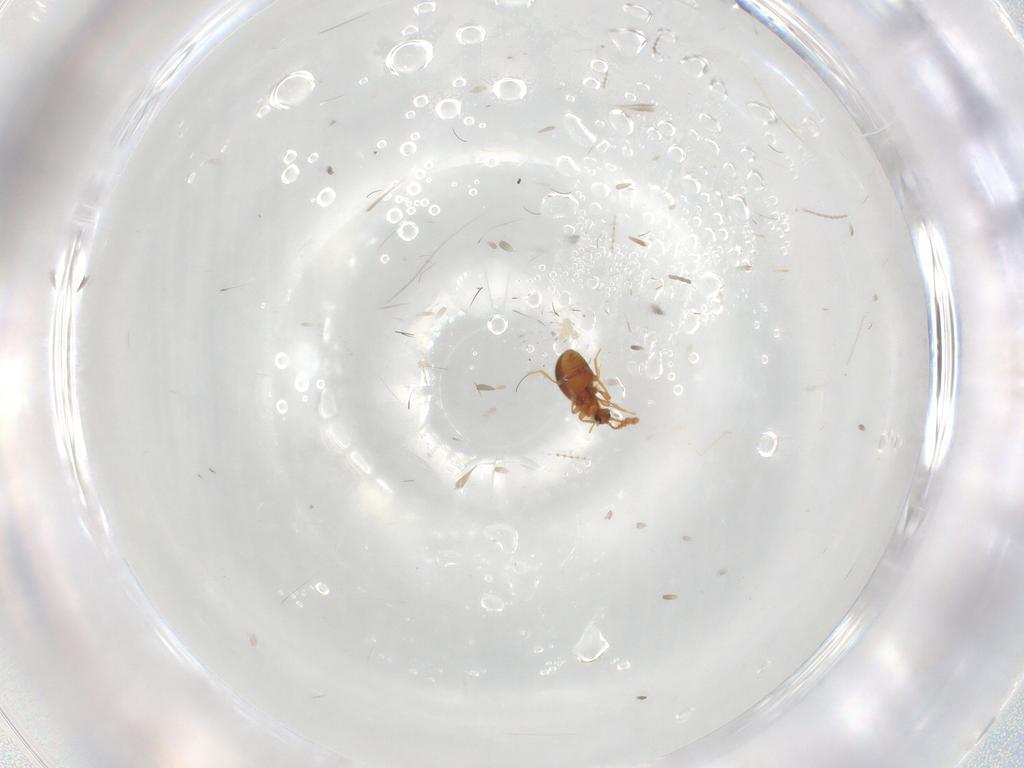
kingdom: Animalia
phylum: Arthropoda
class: Insecta
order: Coleoptera
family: Staphylinidae
